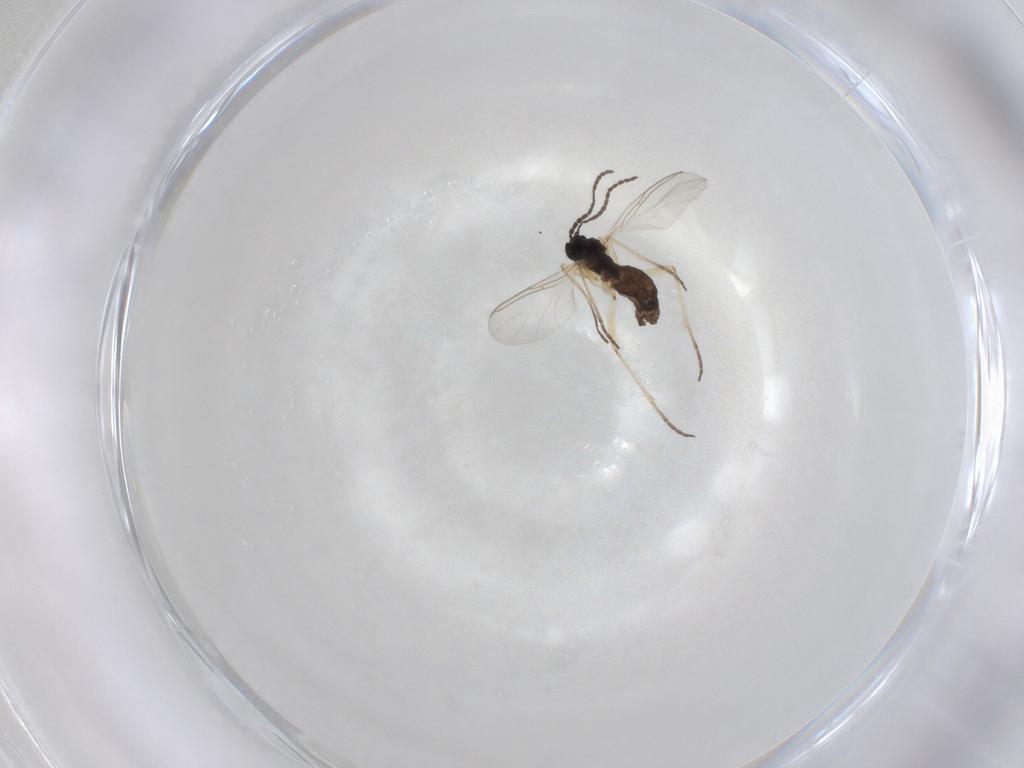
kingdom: Animalia
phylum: Arthropoda
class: Insecta
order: Diptera
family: Sciaridae
